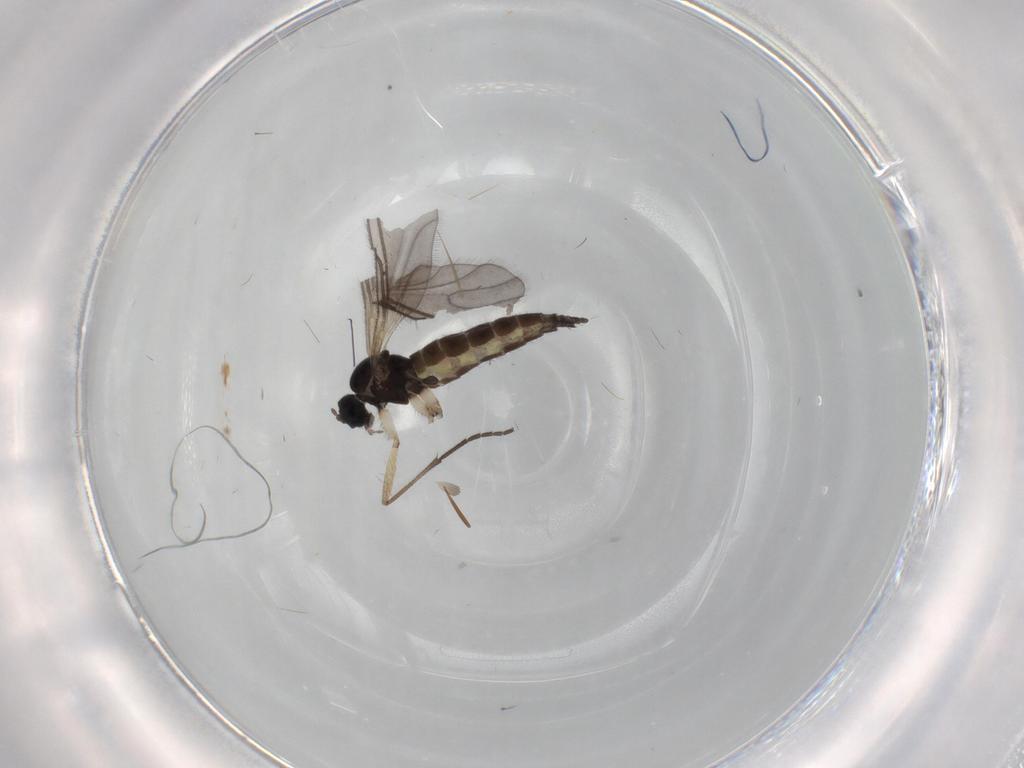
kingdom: Animalia
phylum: Arthropoda
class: Insecta
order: Diptera
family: Sciaridae
